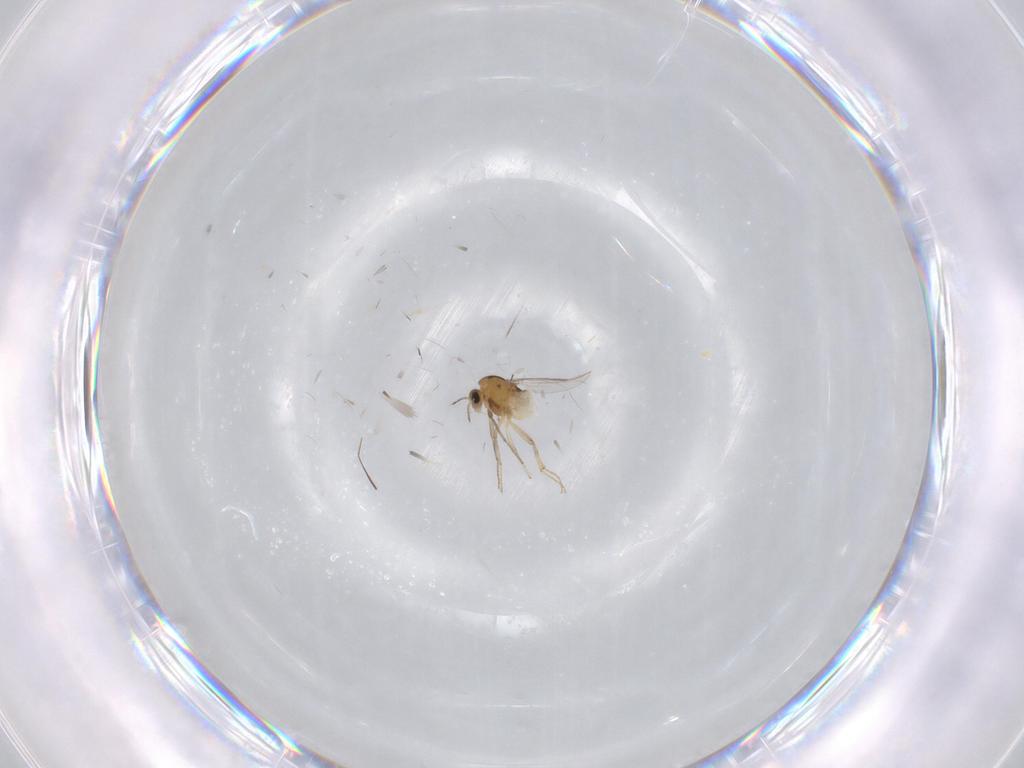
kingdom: Animalia
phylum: Arthropoda
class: Insecta
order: Diptera
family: Chironomidae
